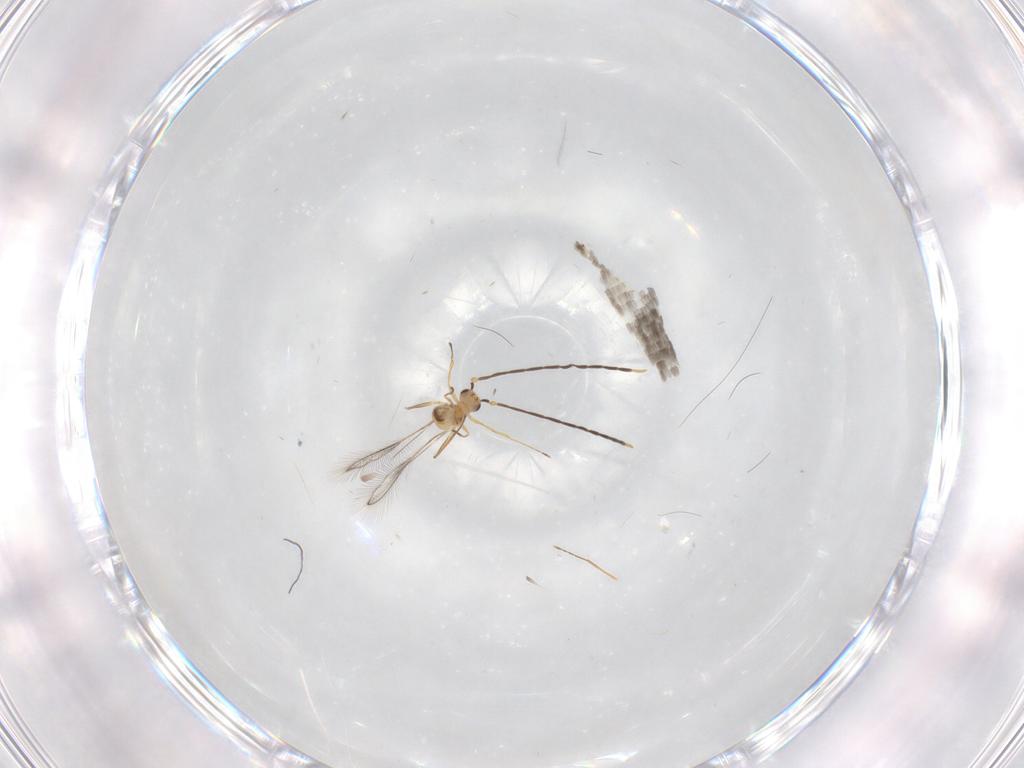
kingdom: Animalia
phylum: Arthropoda
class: Insecta
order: Hymenoptera
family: Mymaridae
